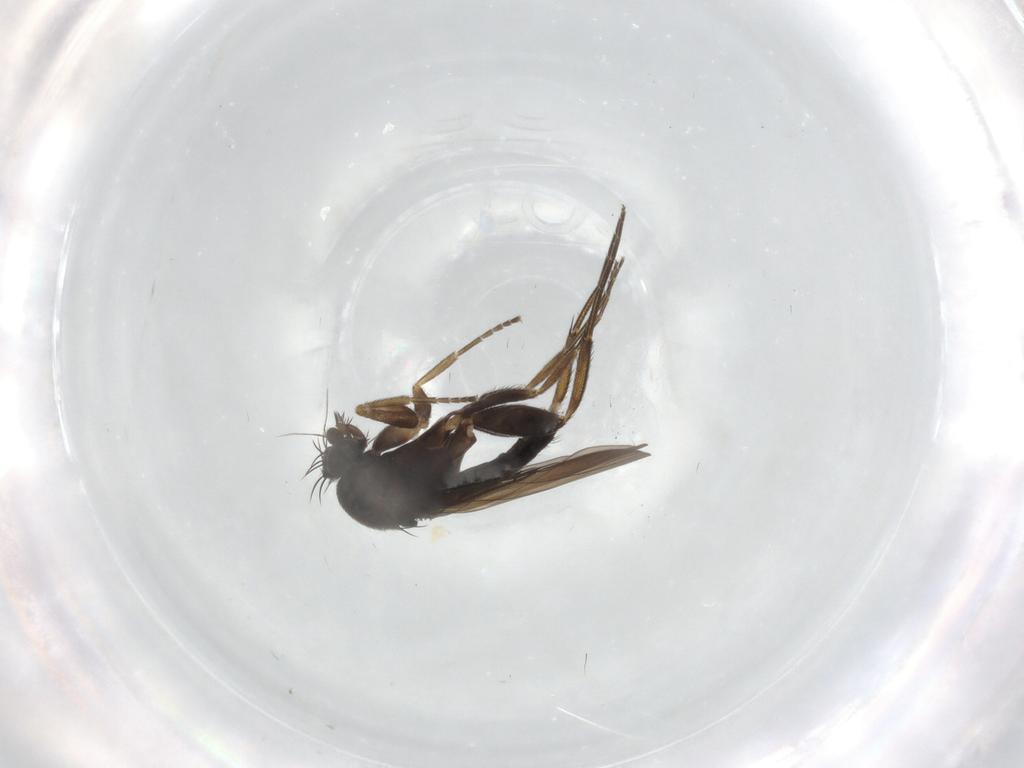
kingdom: Animalia
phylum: Arthropoda
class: Insecta
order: Diptera
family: Phoridae
